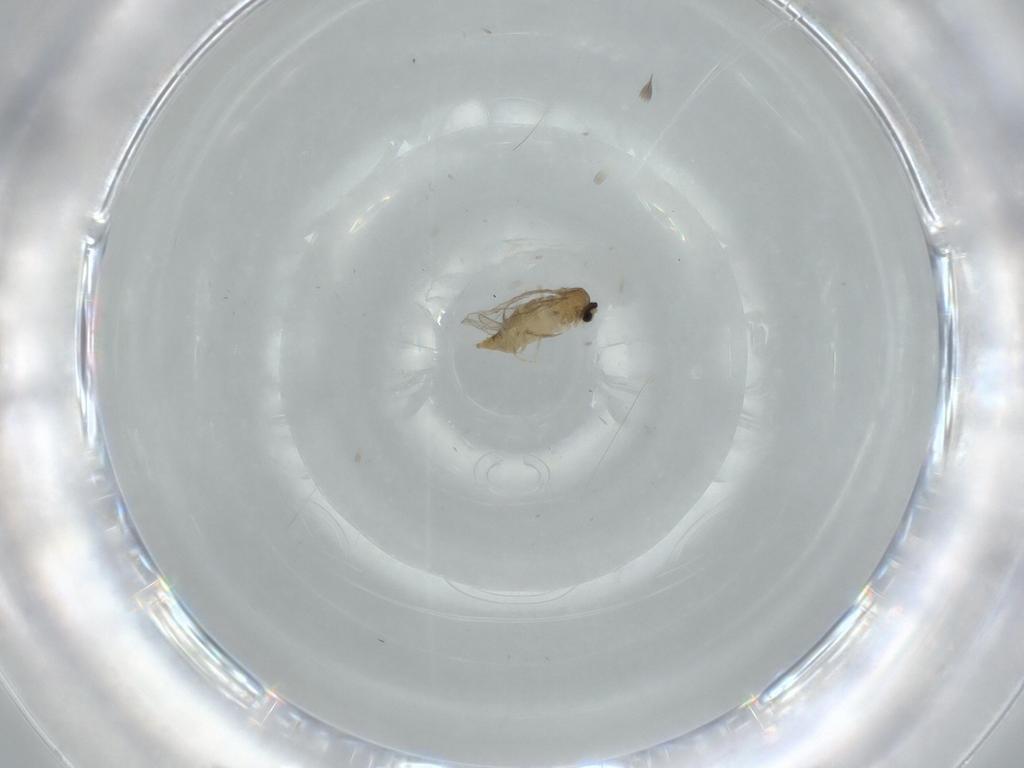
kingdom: Animalia
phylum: Arthropoda
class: Insecta
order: Diptera
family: Cecidomyiidae
